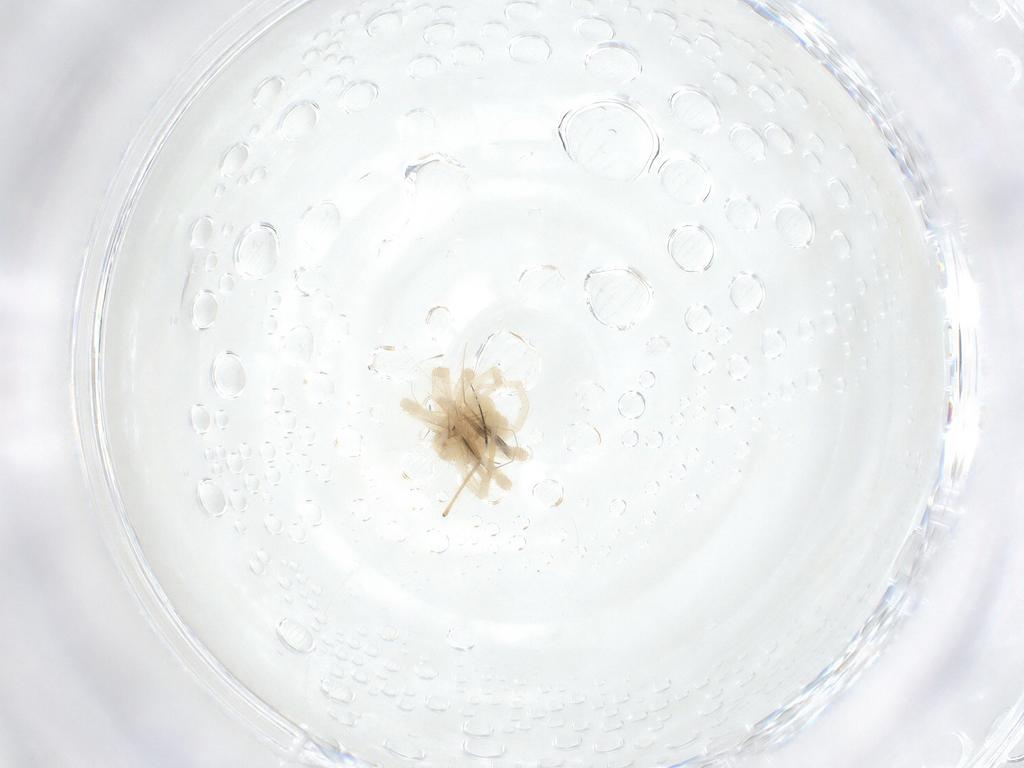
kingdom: Animalia
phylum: Arthropoda
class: Arachnida
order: Trombidiformes
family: Anystidae
